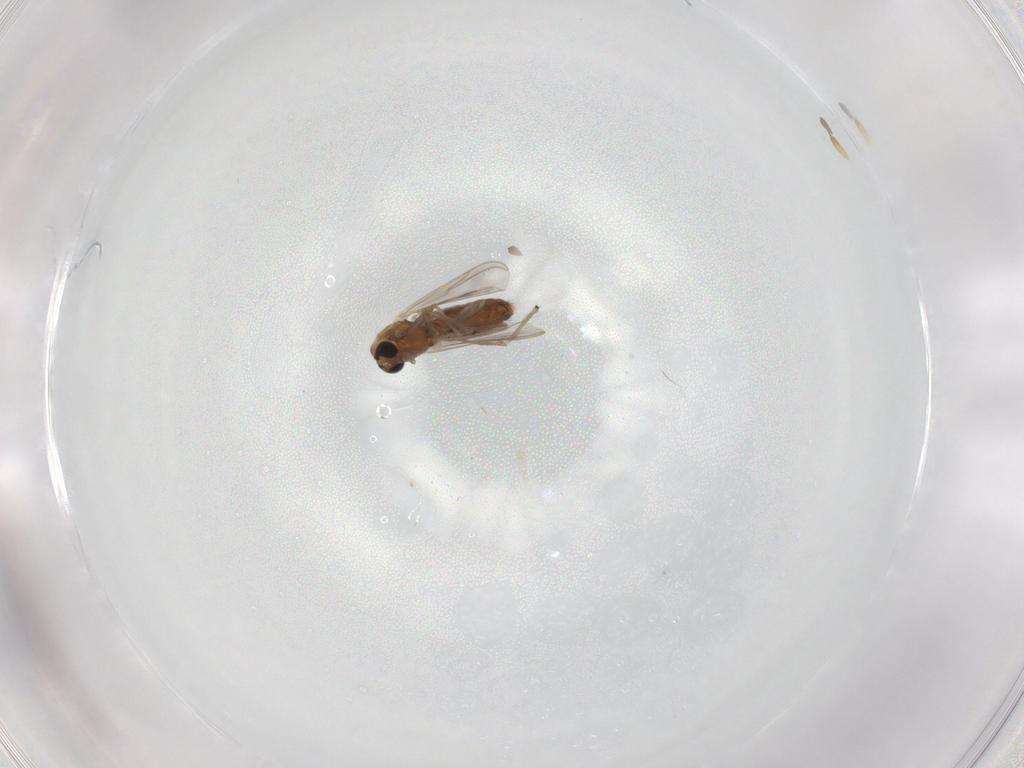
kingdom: Animalia
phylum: Arthropoda
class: Insecta
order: Diptera
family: Chironomidae
